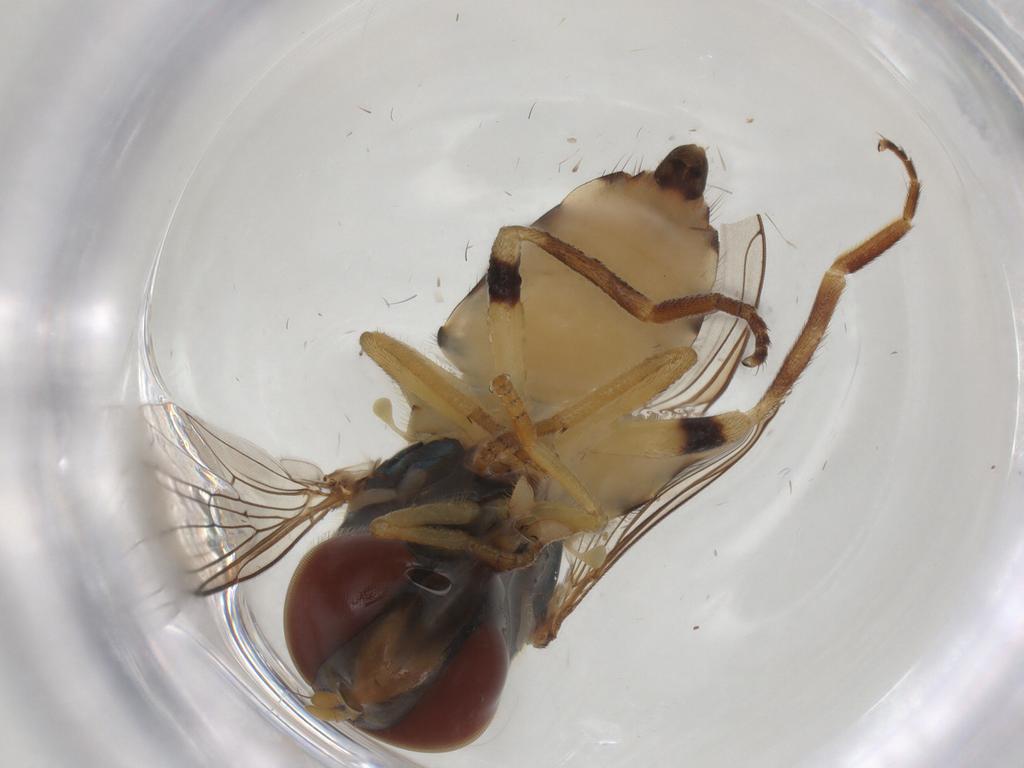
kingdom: Animalia
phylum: Arthropoda
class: Insecta
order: Diptera
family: Syrphidae
